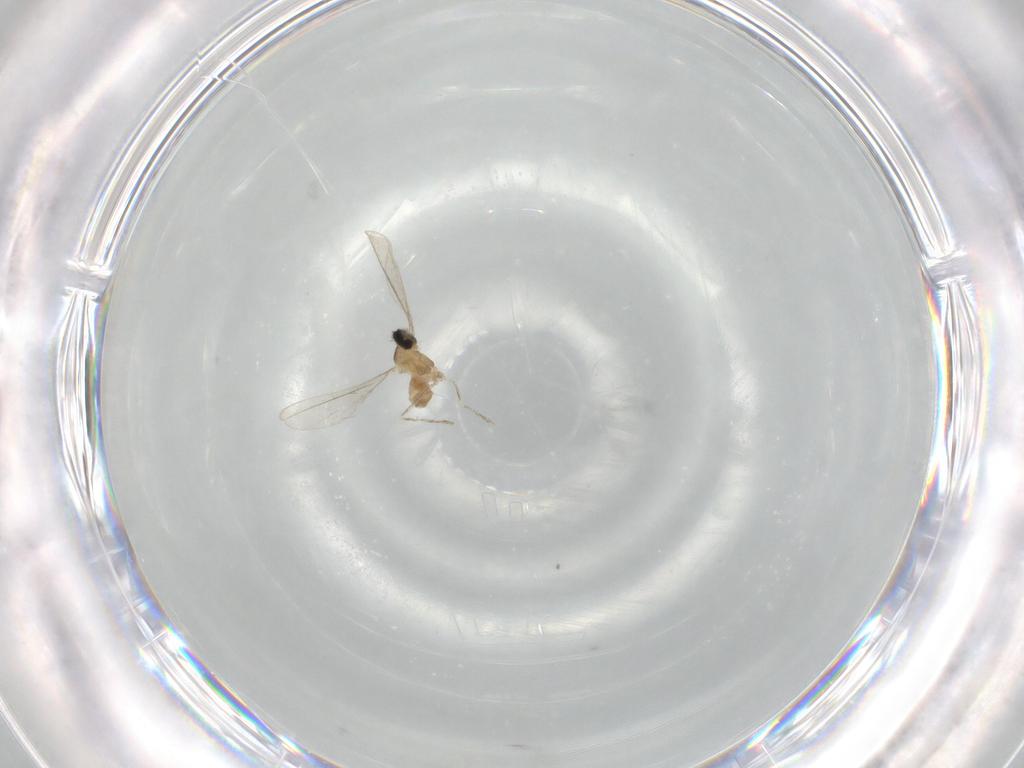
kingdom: Animalia
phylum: Arthropoda
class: Insecta
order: Diptera
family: Cecidomyiidae
